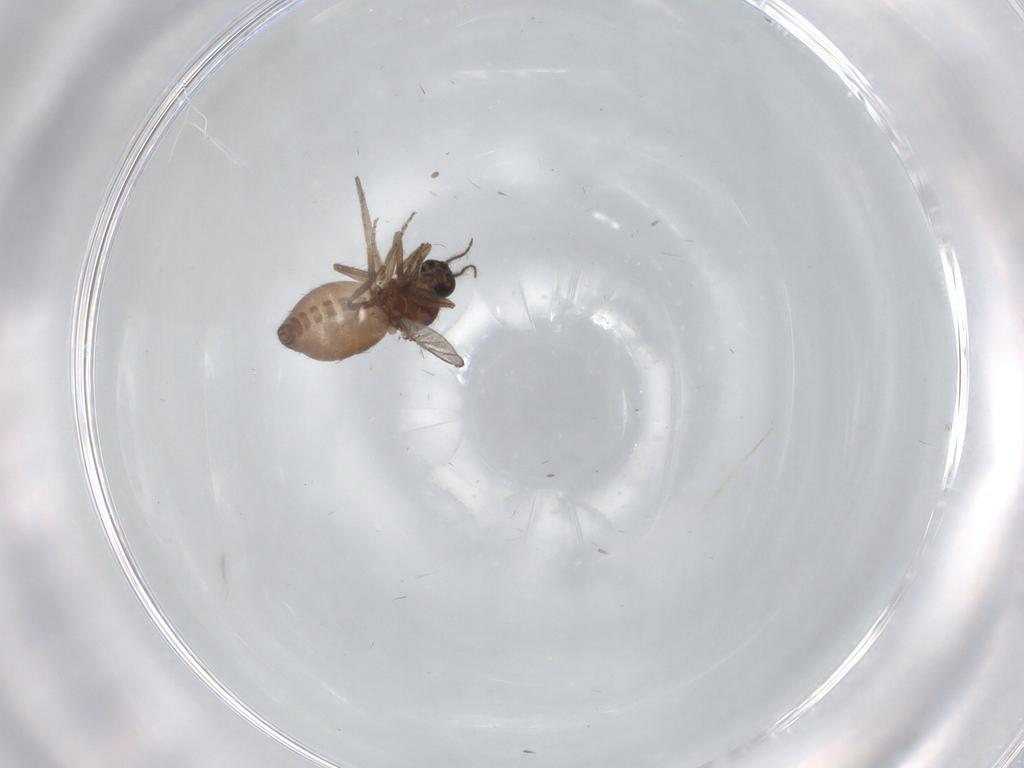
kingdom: Animalia
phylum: Arthropoda
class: Insecta
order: Diptera
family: Ceratopogonidae
